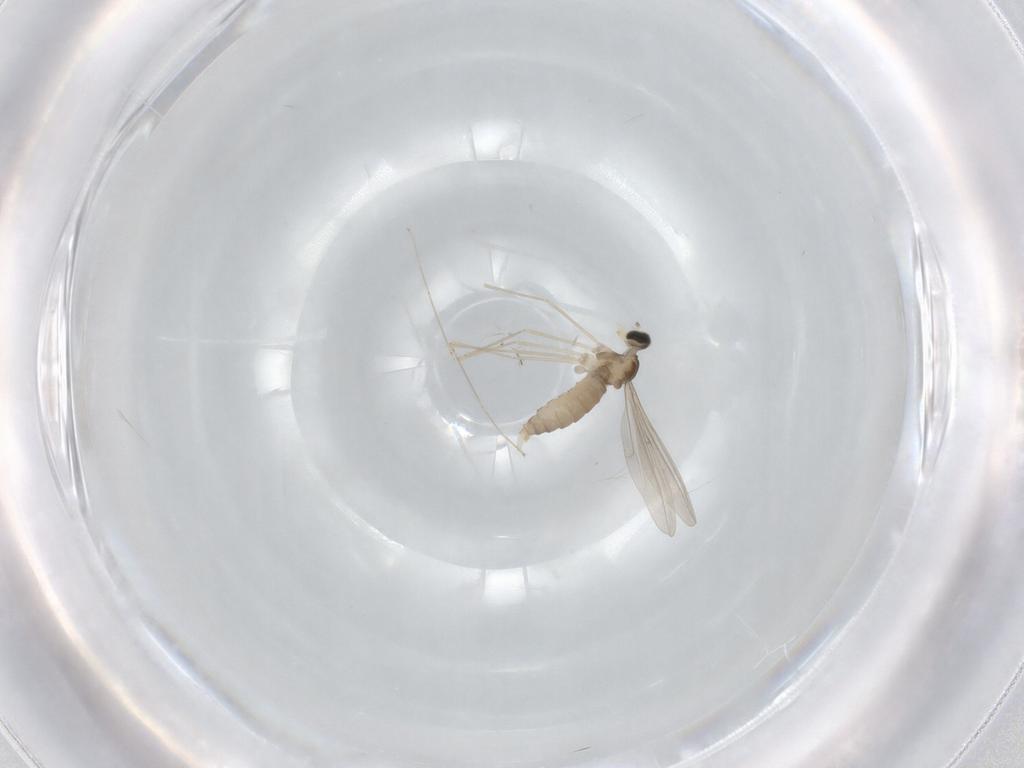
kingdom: Animalia
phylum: Arthropoda
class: Insecta
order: Diptera
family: Cecidomyiidae
